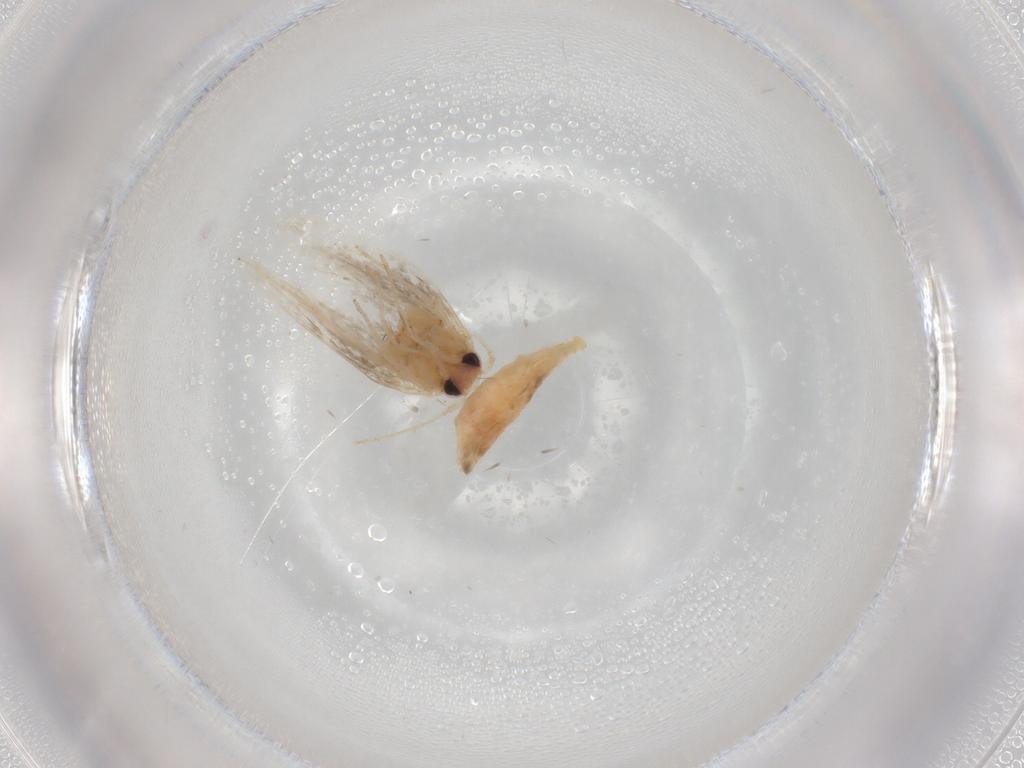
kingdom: Animalia
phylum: Arthropoda
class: Insecta
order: Lepidoptera
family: Lyonetiidae
